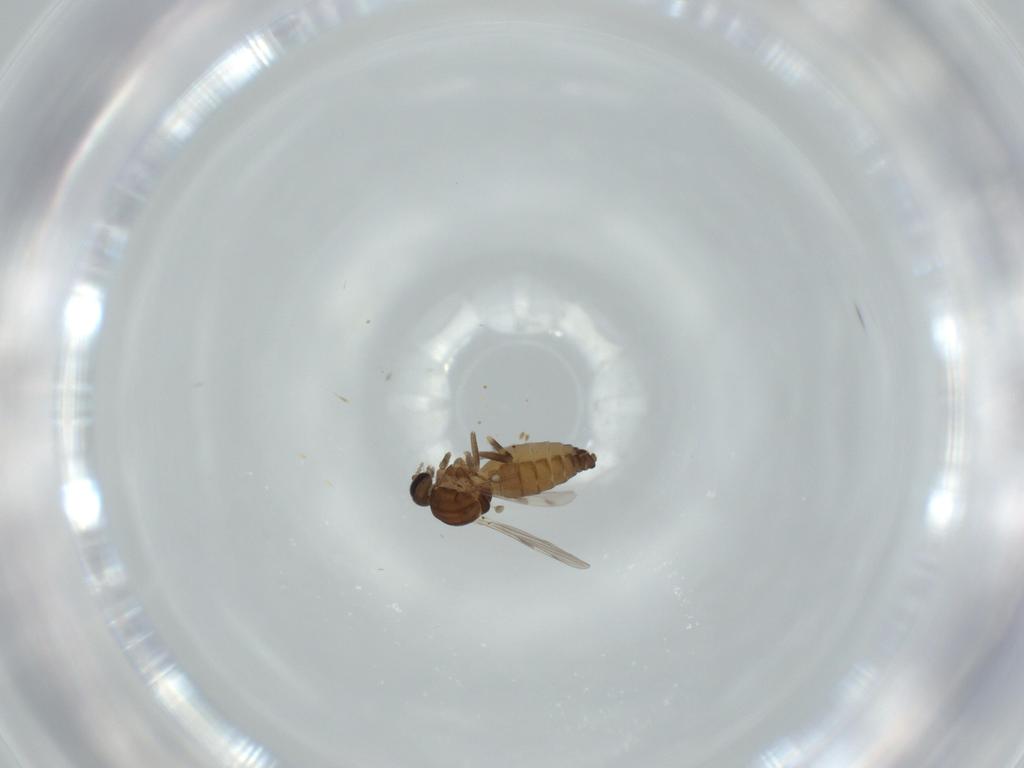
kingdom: Animalia
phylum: Arthropoda
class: Insecta
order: Diptera
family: Ceratopogonidae
